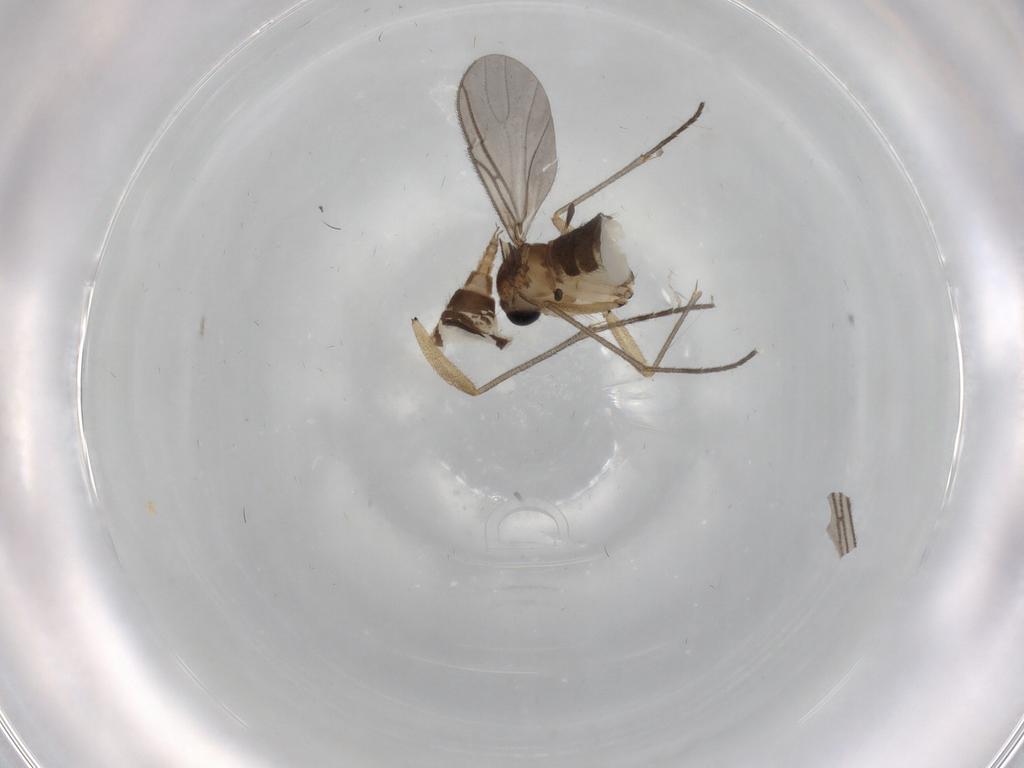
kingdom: Animalia
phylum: Arthropoda
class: Insecta
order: Diptera
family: Sciaridae
